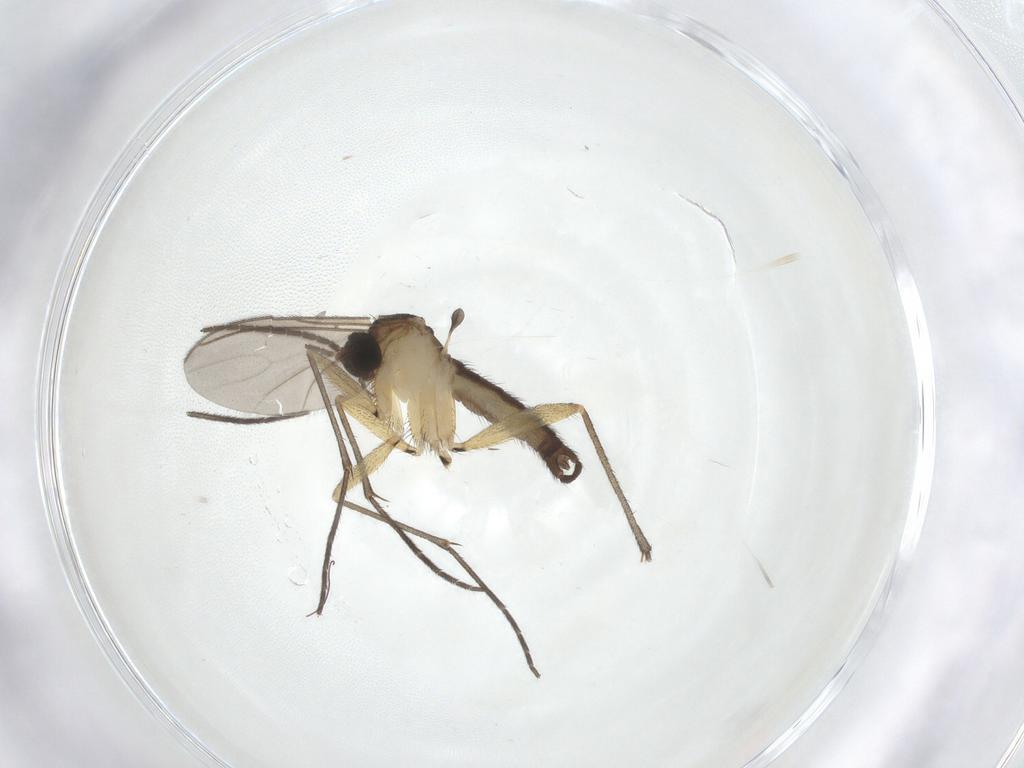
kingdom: Animalia
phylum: Arthropoda
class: Insecta
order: Diptera
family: Sciaridae
